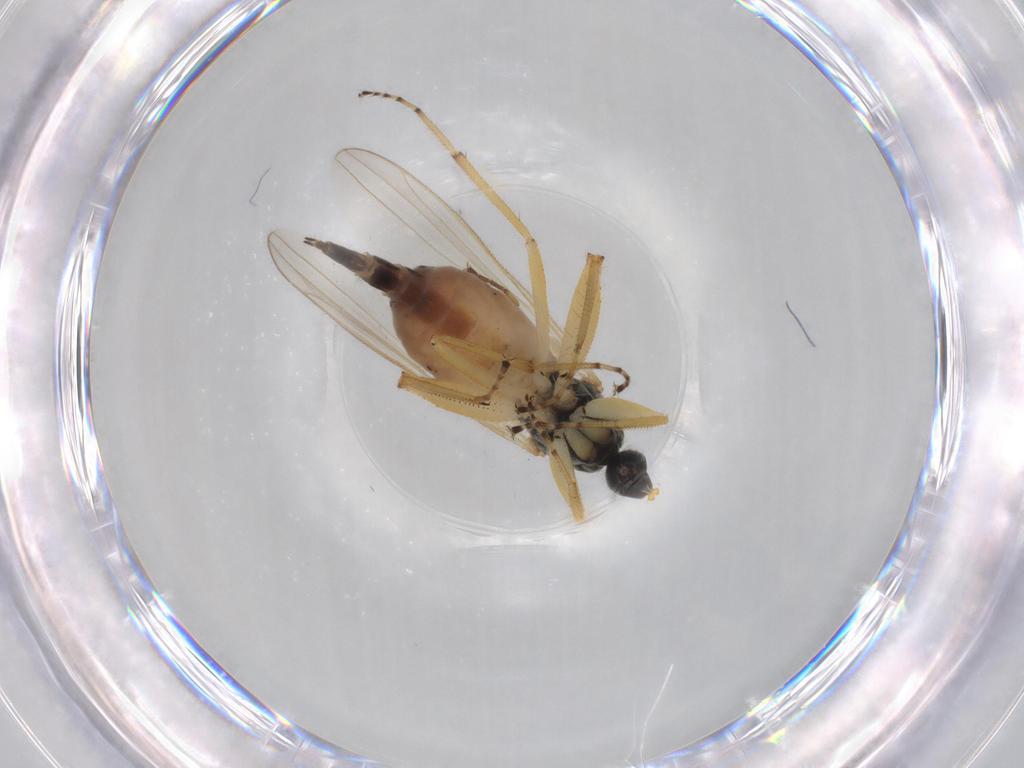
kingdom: Animalia
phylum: Arthropoda
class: Insecta
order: Diptera
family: Hybotidae
